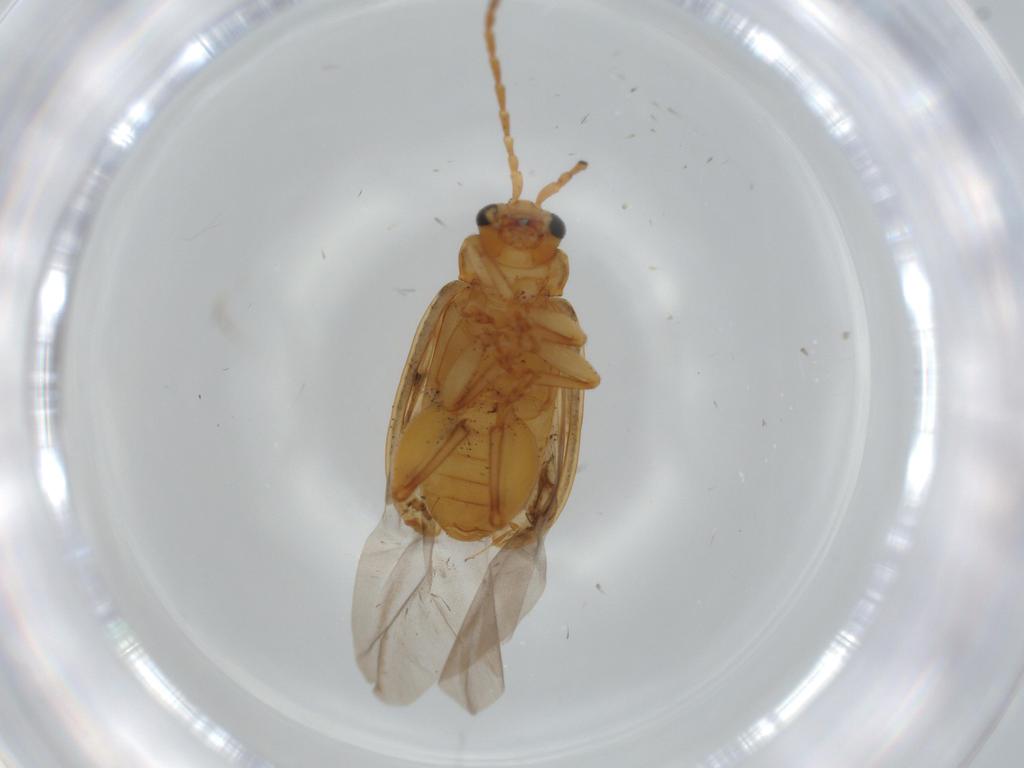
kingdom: Animalia
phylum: Arthropoda
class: Insecta
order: Coleoptera
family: Chrysomelidae
